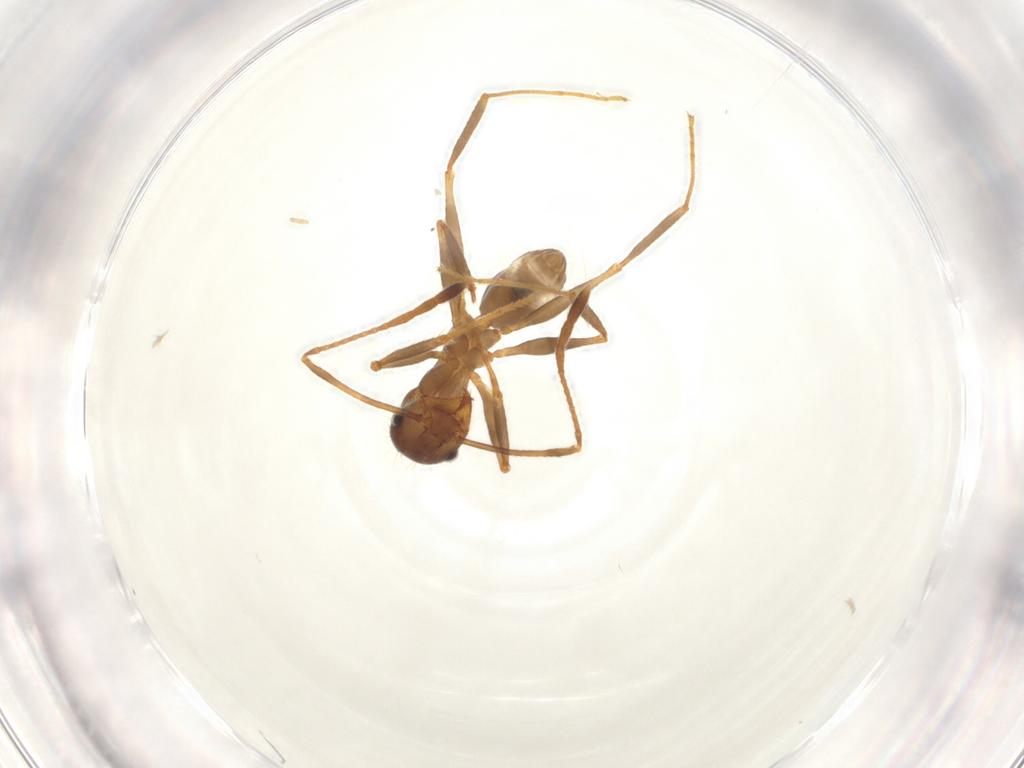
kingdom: Animalia
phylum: Arthropoda
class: Insecta
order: Hymenoptera
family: Formicidae
